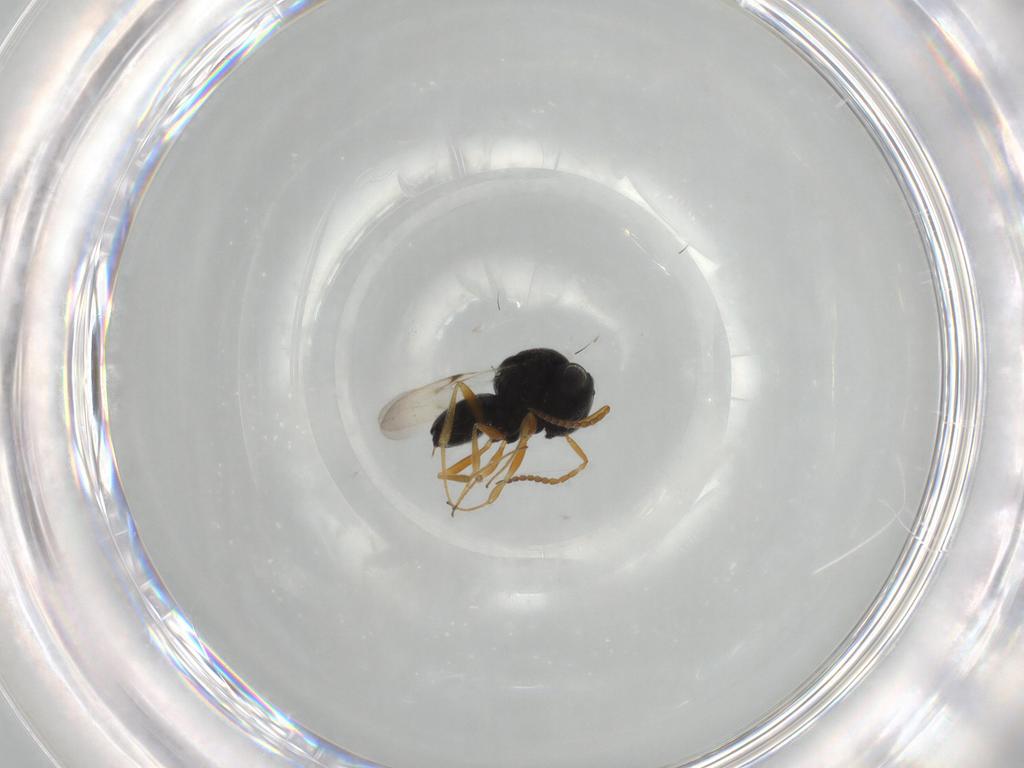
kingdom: Animalia
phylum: Arthropoda
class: Insecta
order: Hymenoptera
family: Scelionidae
